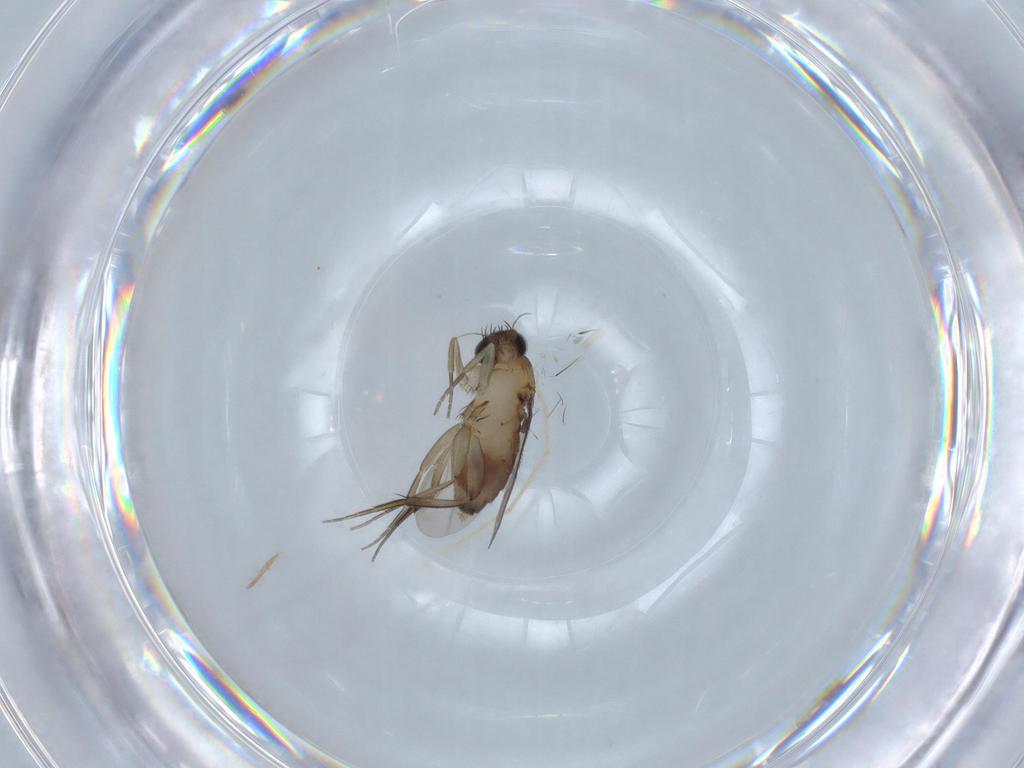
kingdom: Animalia
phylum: Arthropoda
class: Insecta
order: Diptera
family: Phoridae
